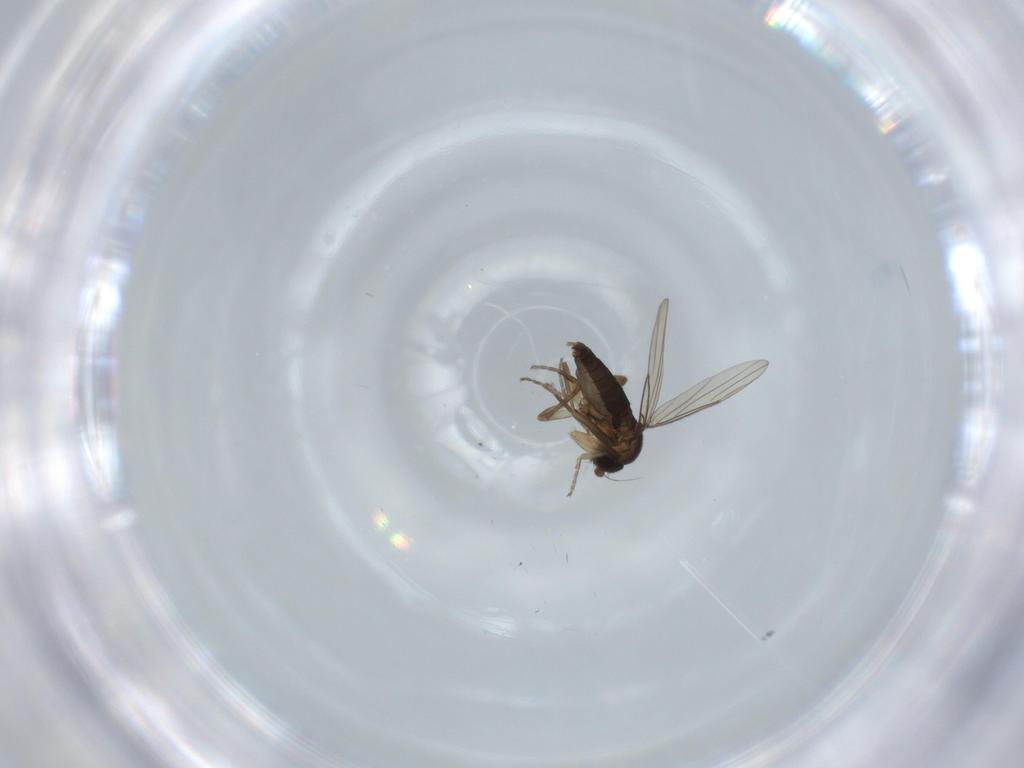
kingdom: Animalia
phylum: Arthropoda
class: Insecta
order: Diptera
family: Phoridae
